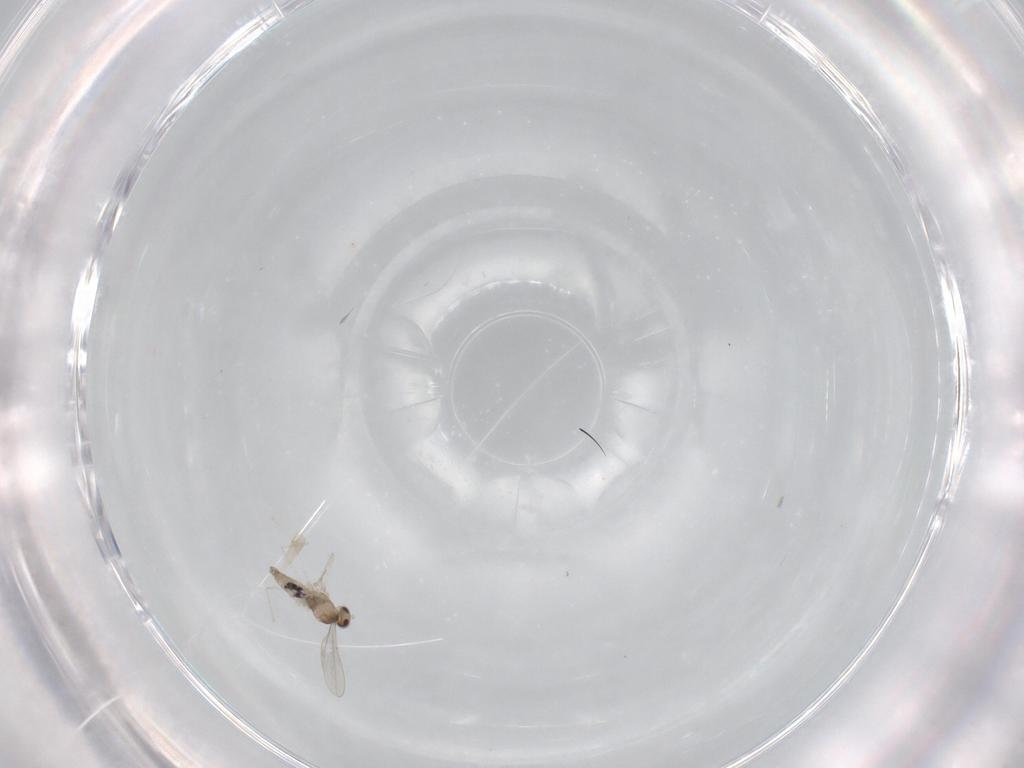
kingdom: Animalia
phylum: Arthropoda
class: Insecta
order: Diptera
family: Cecidomyiidae
